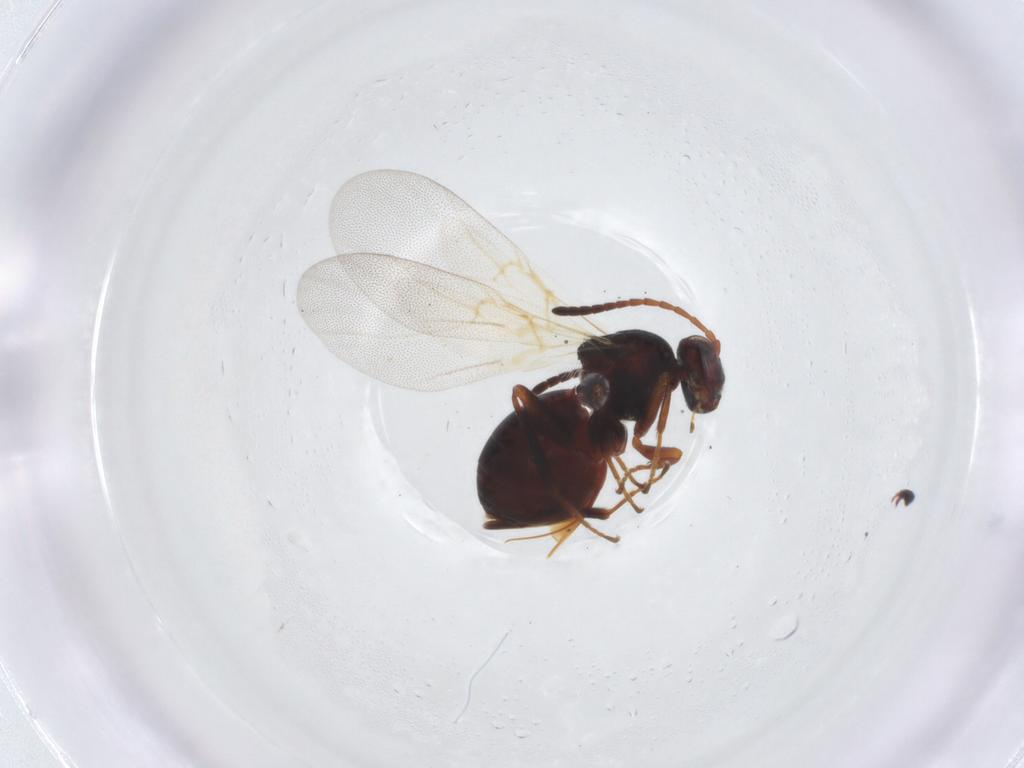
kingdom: Animalia
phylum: Arthropoda
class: Insecta
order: Hymenoptera
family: Cynipidae
